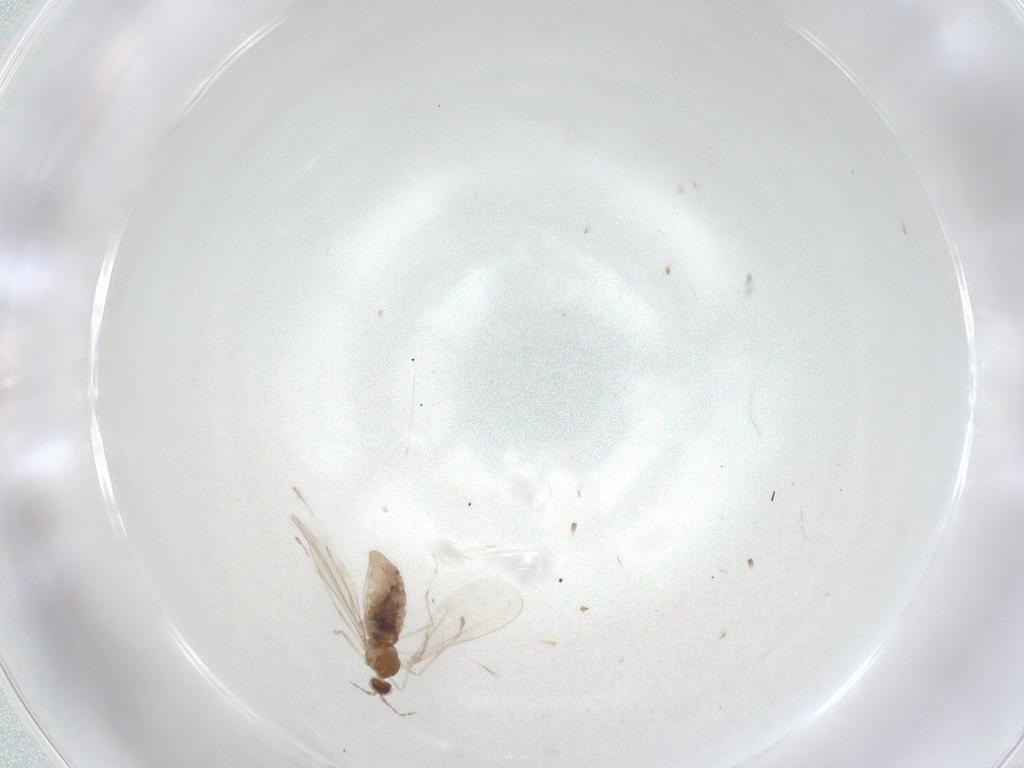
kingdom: Animalia
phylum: Arthropoda
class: Insecta
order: Diptera
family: Cecidomyiidae
